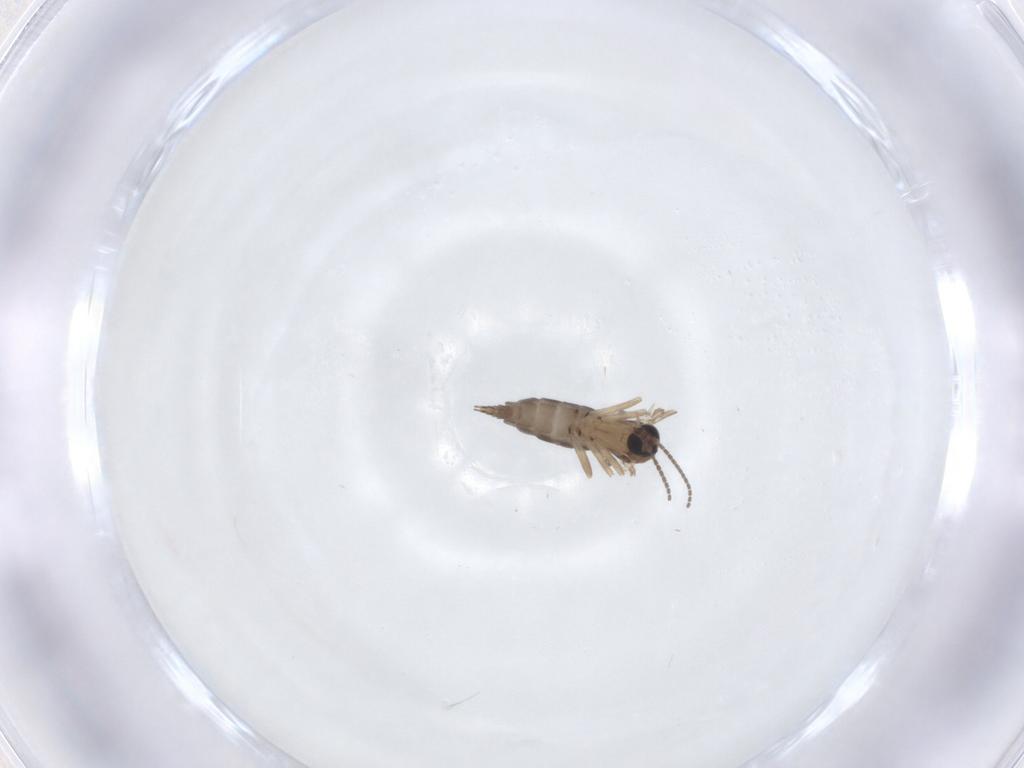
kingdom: Animalia
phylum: Arthropoda
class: Insecta
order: Diptera
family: Sciaridae
